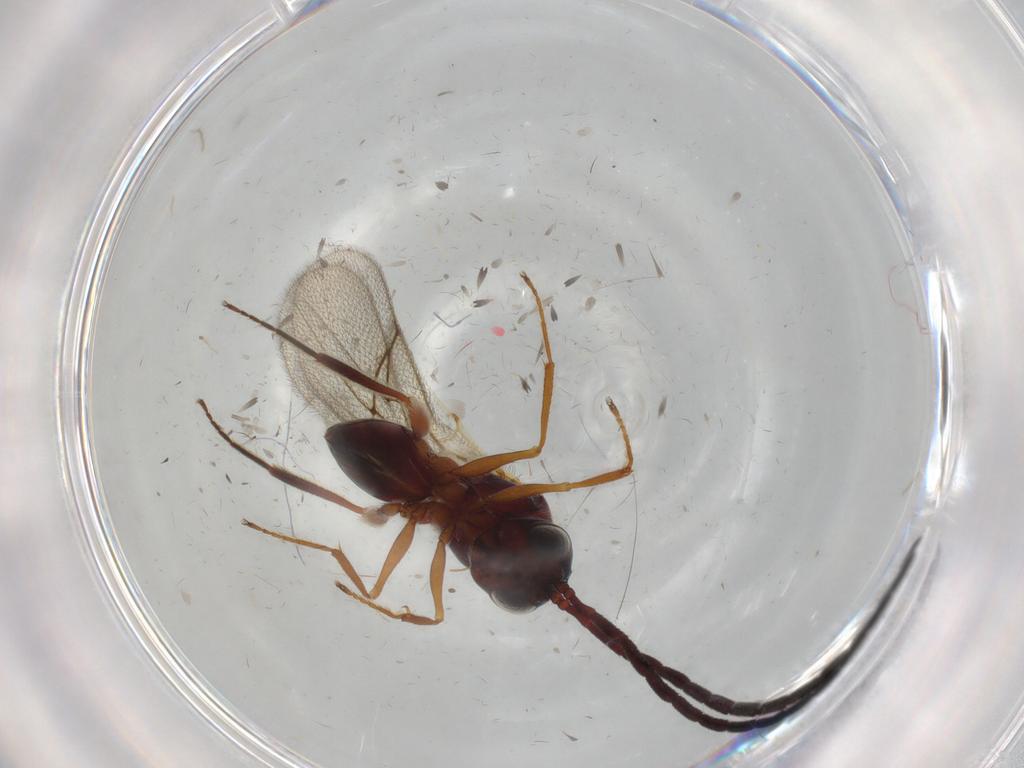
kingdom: Animalia
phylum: Arthropoda
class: Insecta
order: Hymenoptera
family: Figitidae
